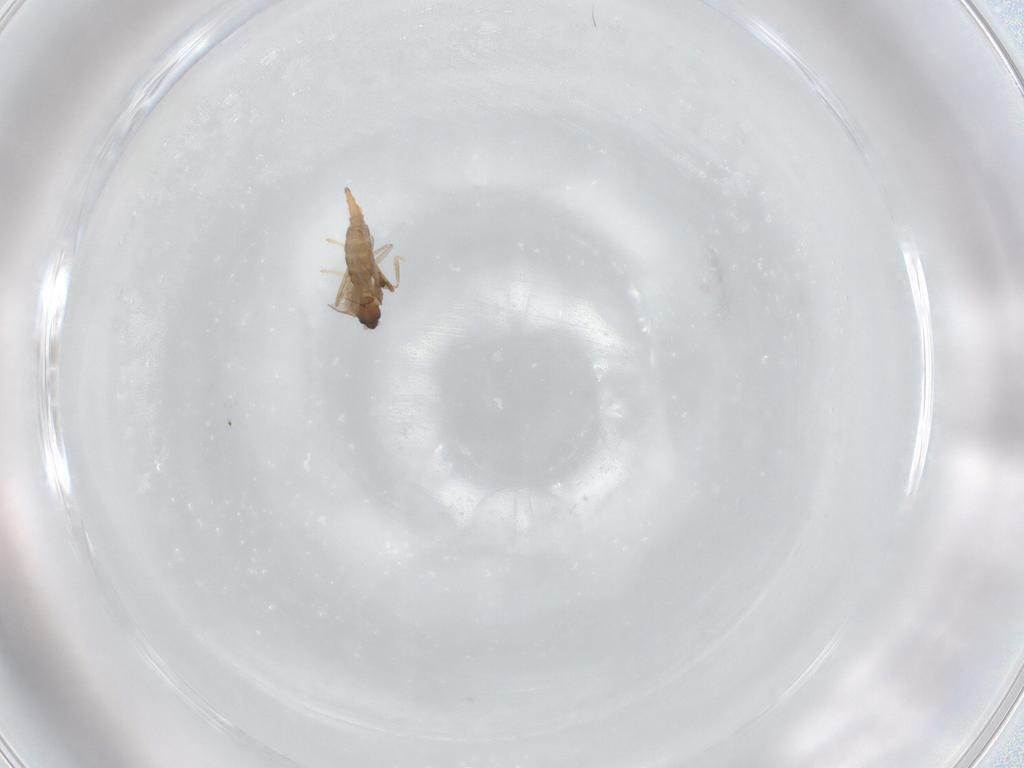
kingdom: Animalia
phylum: Arthropoda
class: Insecta
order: Diptera
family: Cecidomyiidae
